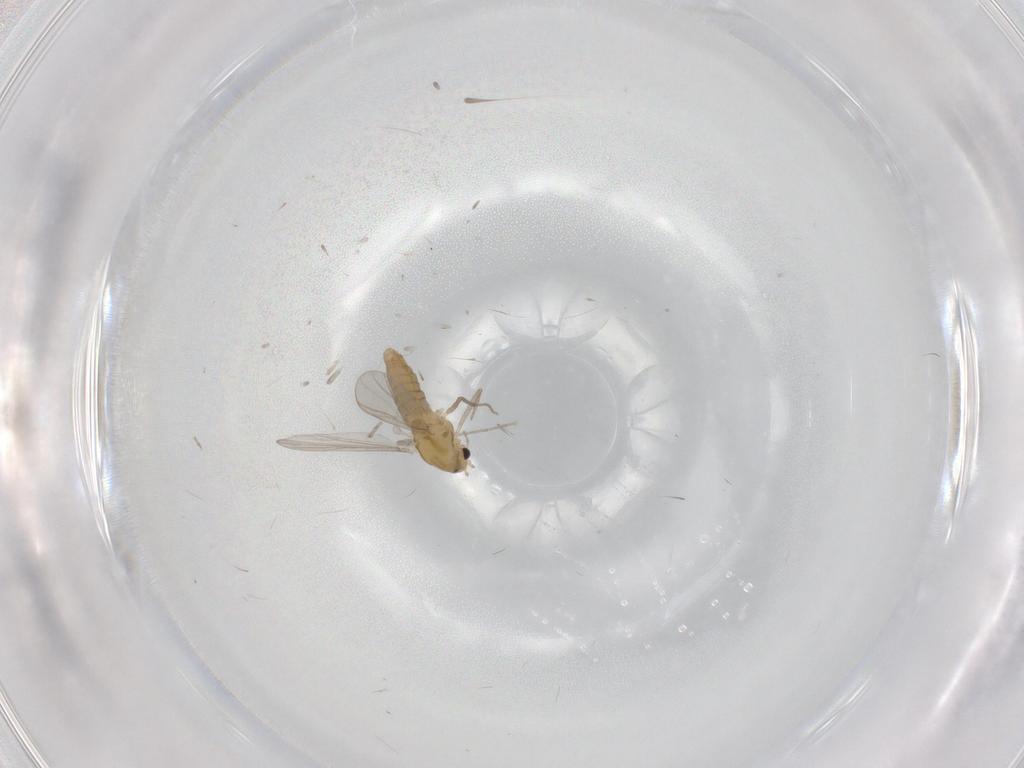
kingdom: Animalia
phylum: Arthropoda
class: Insecta
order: Diptera
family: Chironomidae
